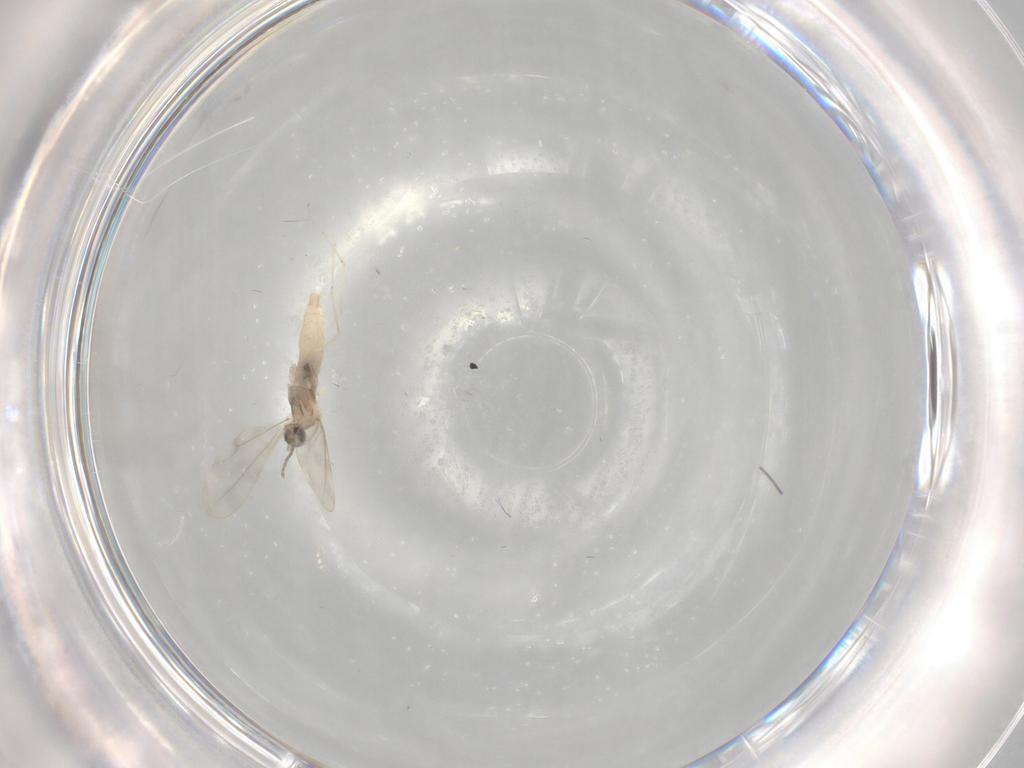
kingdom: Animalia
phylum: Arthropoda
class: Insecta
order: Diptera
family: Cecidomyiidae
